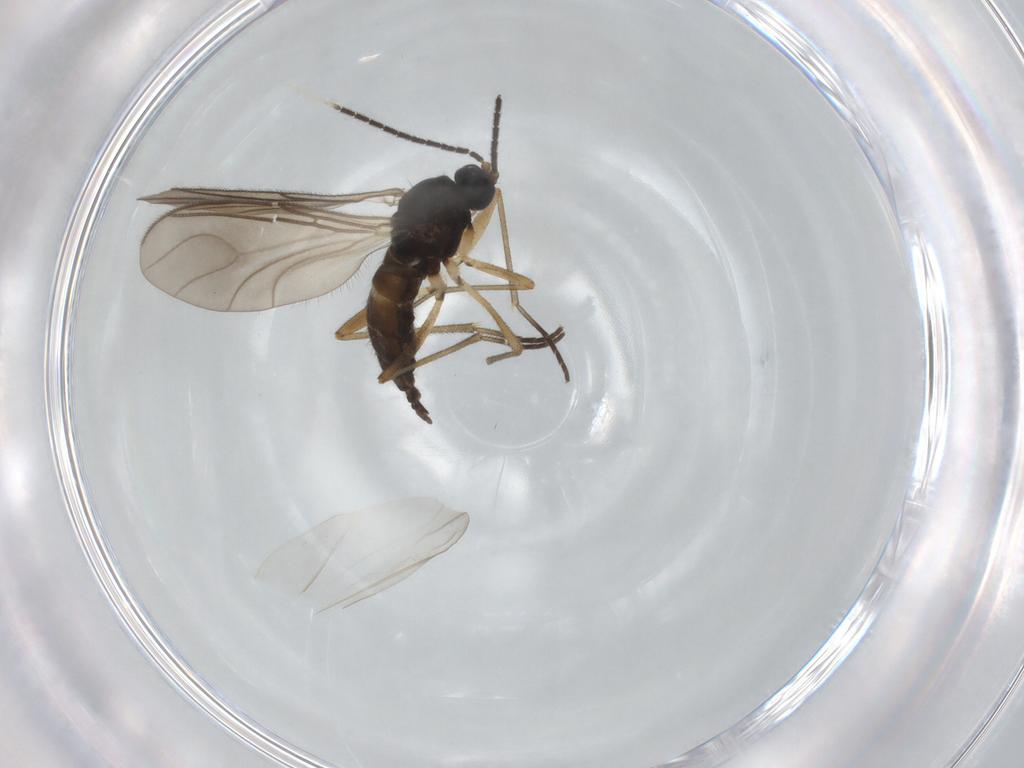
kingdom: Animalia
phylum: Arthropoda
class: Insecta
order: Diptera
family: Sciaridae
